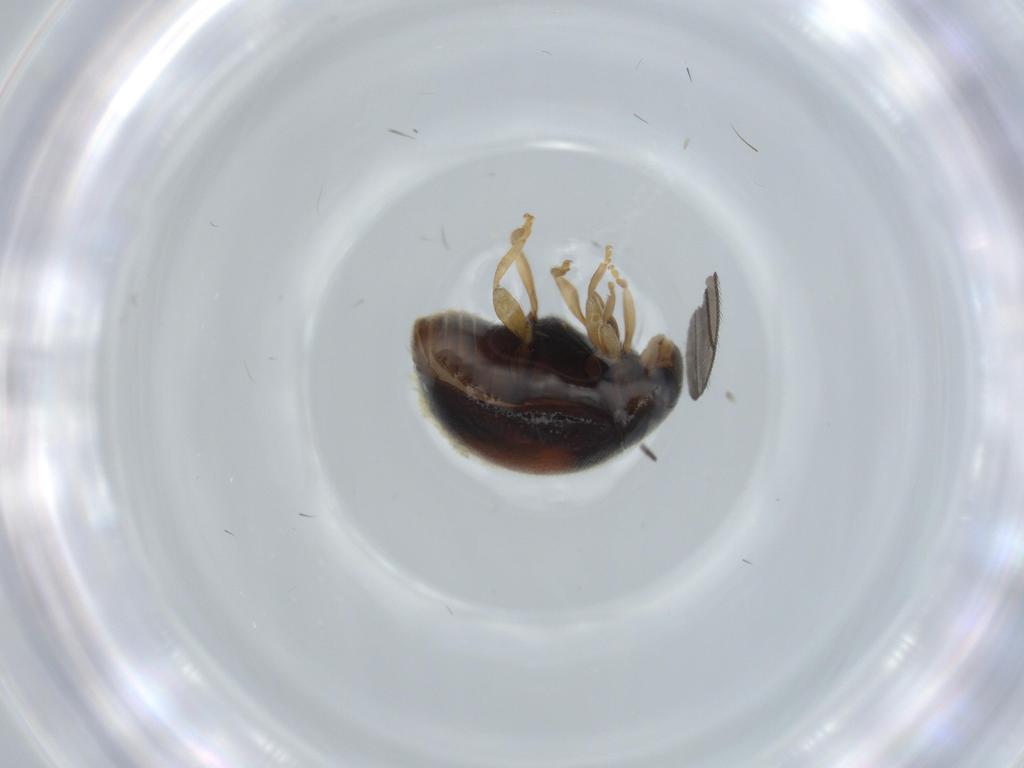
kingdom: Animalia
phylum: Arthropoda
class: Insecta
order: Coleoptera
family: Coccinellidae
